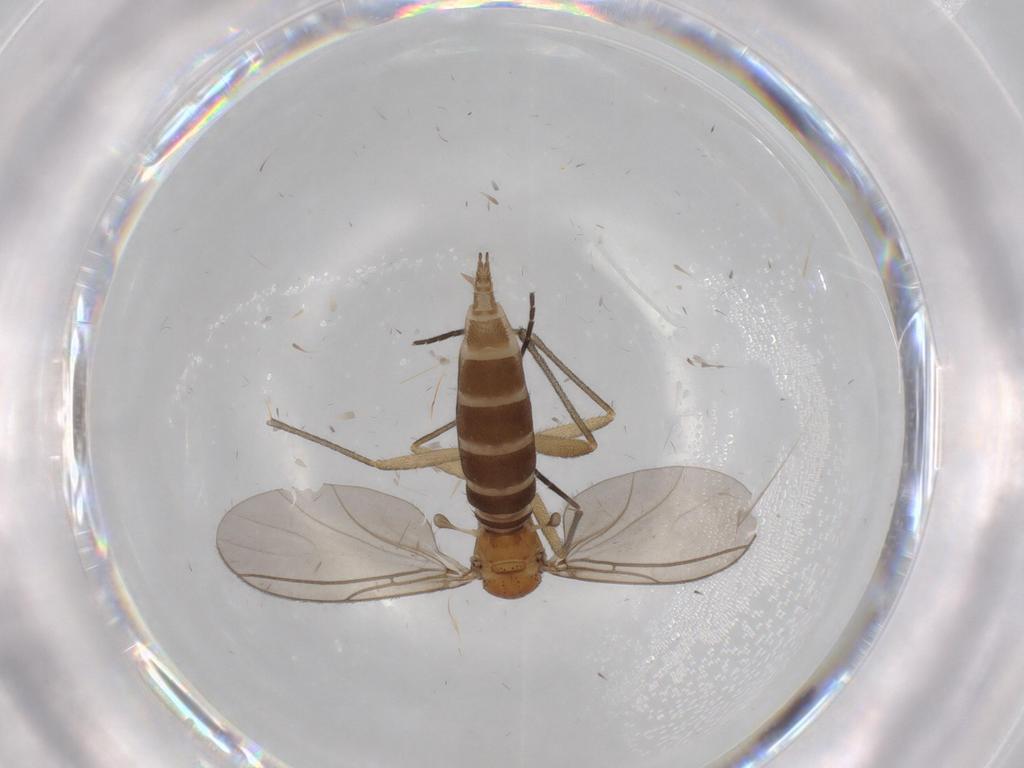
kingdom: Animalia
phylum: Arthropoda
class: Insecta
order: Diptera
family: Sciaridae
